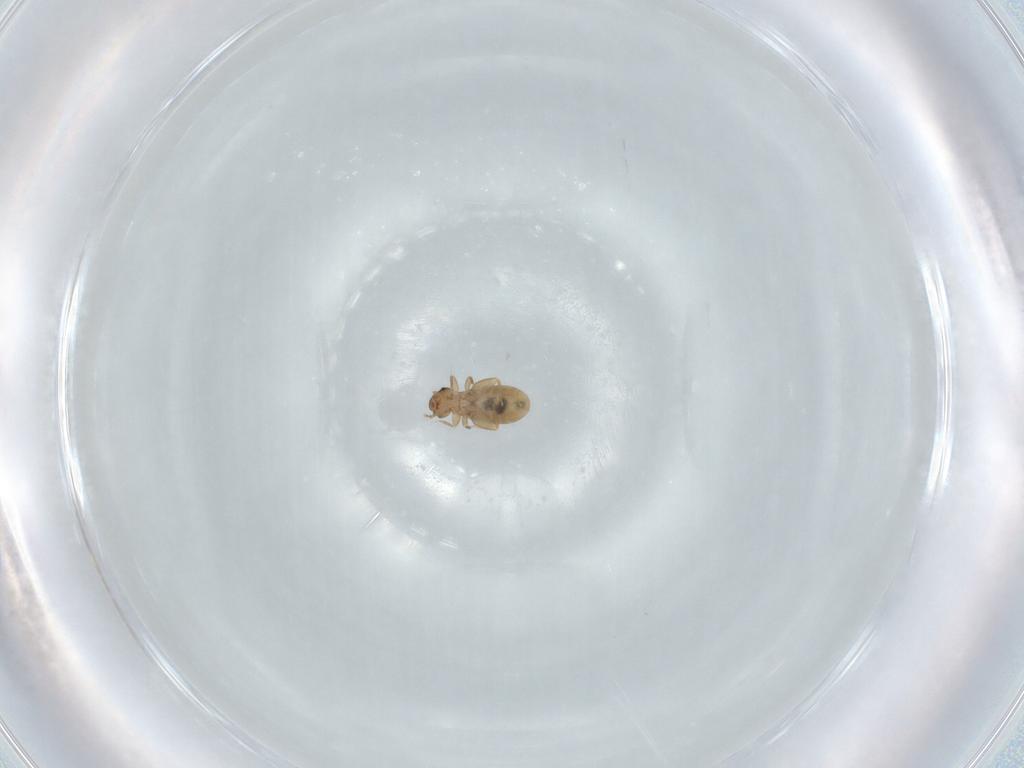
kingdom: Animalia
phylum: Arthropoda
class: Insecta
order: Psocodea
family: Liposcelididae
